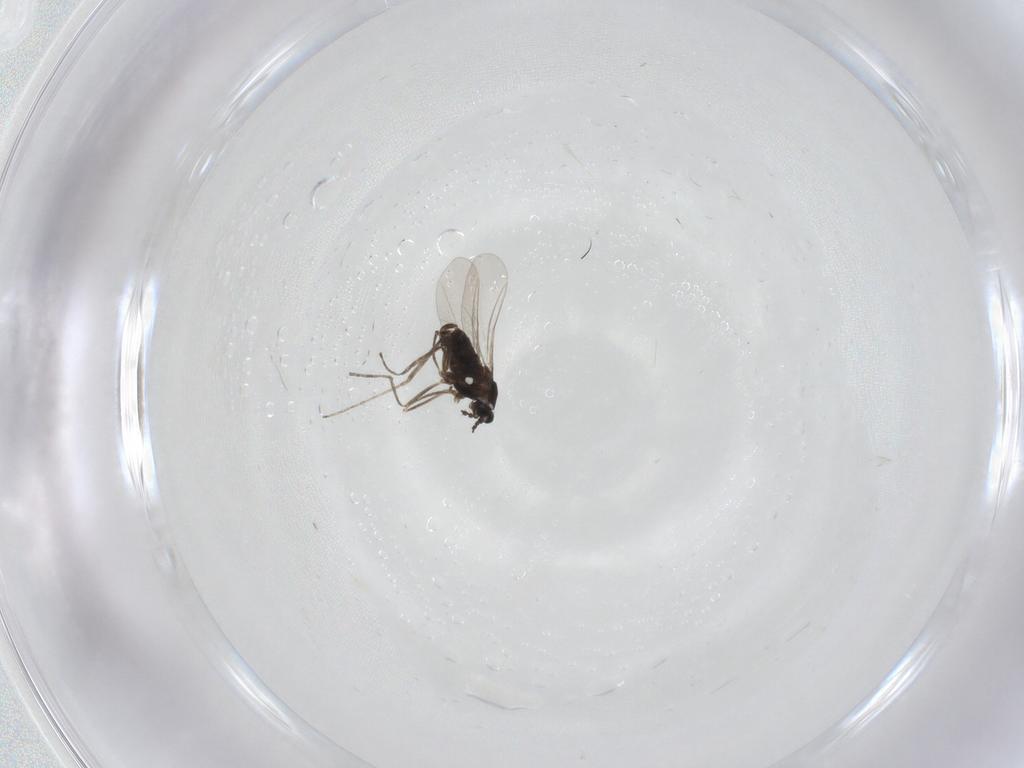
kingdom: Animalia
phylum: Arthropoda
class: Insecta
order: Diptera
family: Cecidomyiidae
